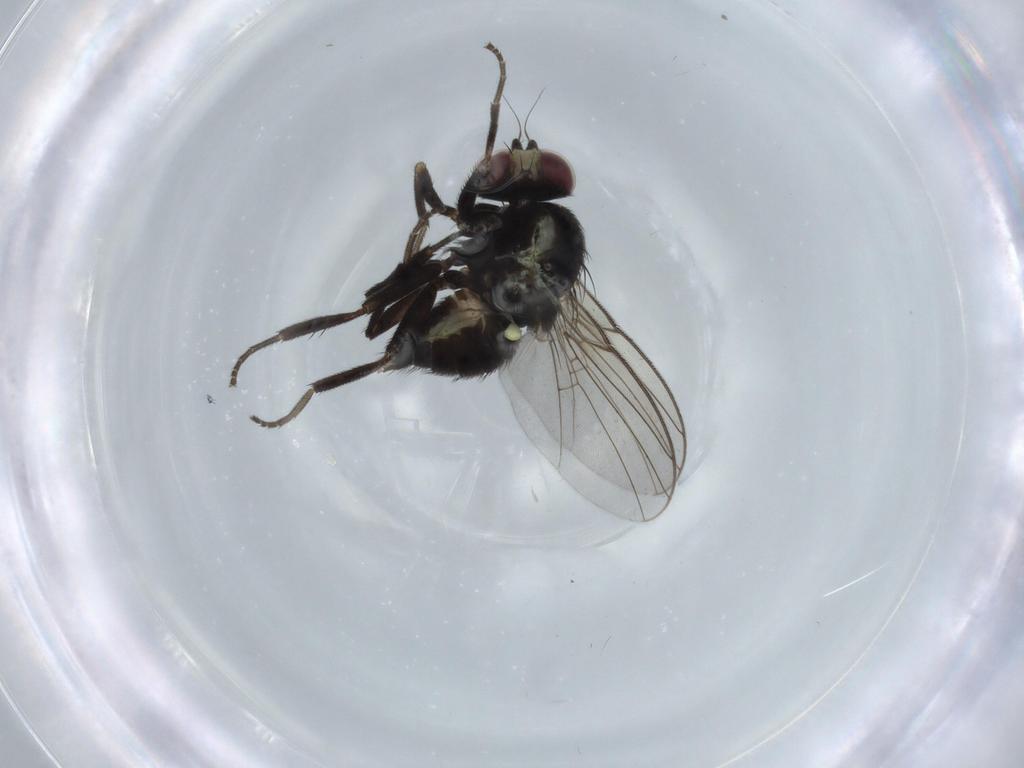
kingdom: Animalia
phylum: Arthropoda
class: Insecta
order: Diptera
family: Agromyzidae
